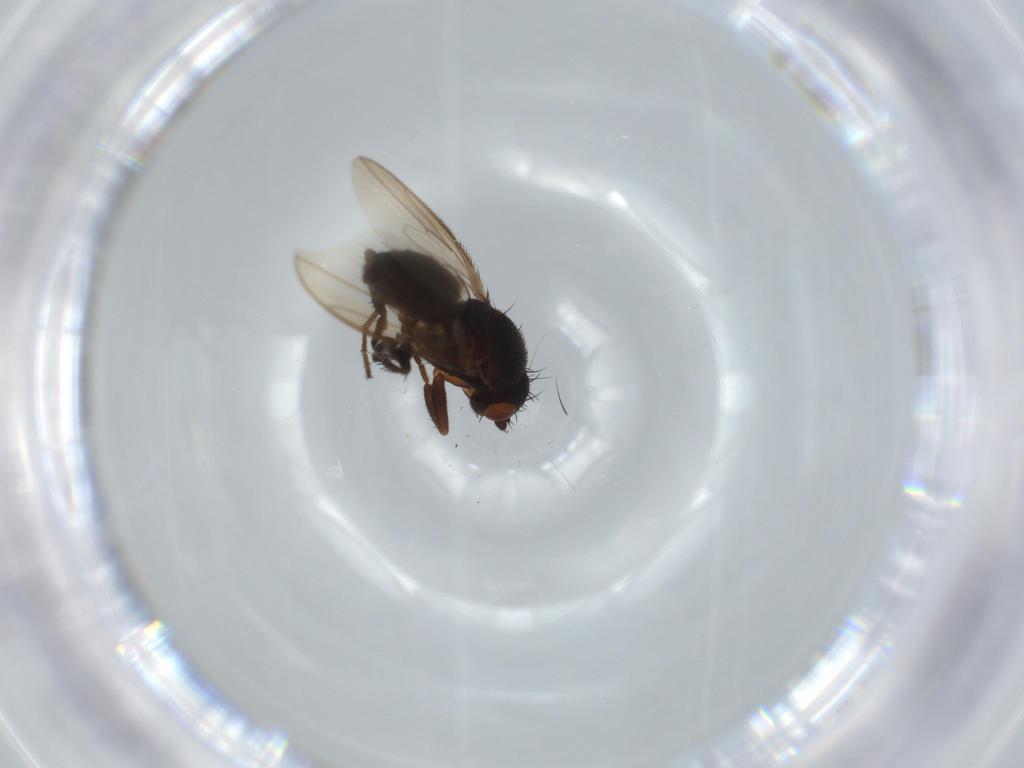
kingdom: Animalia
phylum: Arthropoda
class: Insecta
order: Diptera
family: Sphaeroceridae
